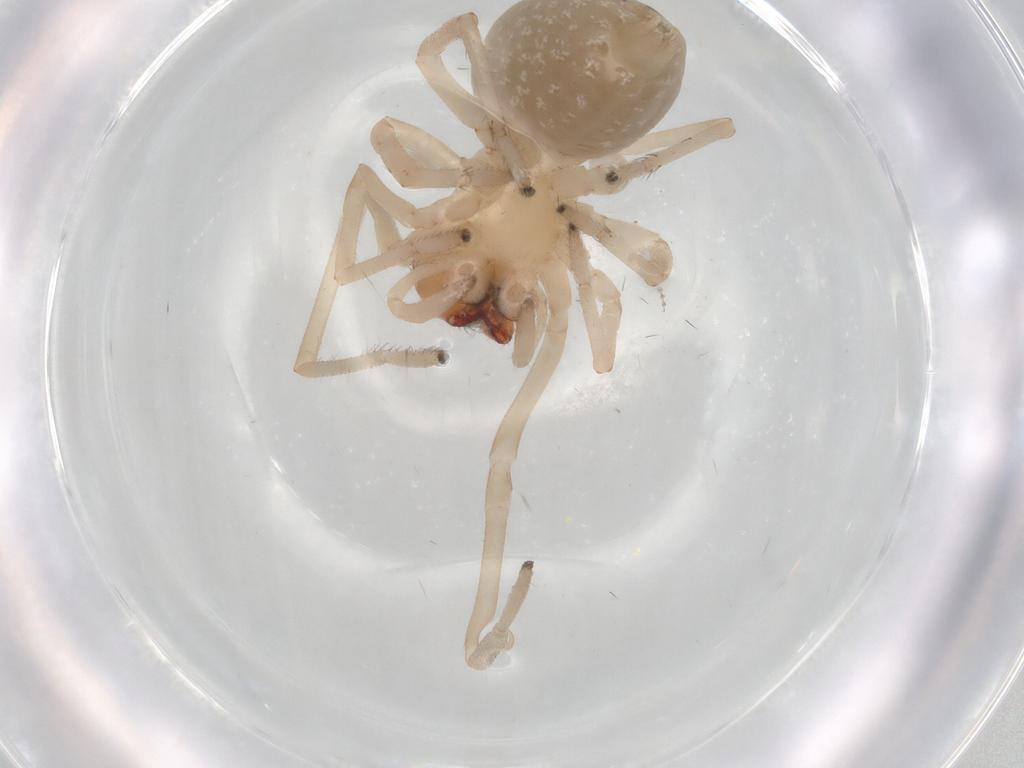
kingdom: Animalia
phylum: Arthropoda
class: Arachnida
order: Araneae
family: Cheiracanthiidae
